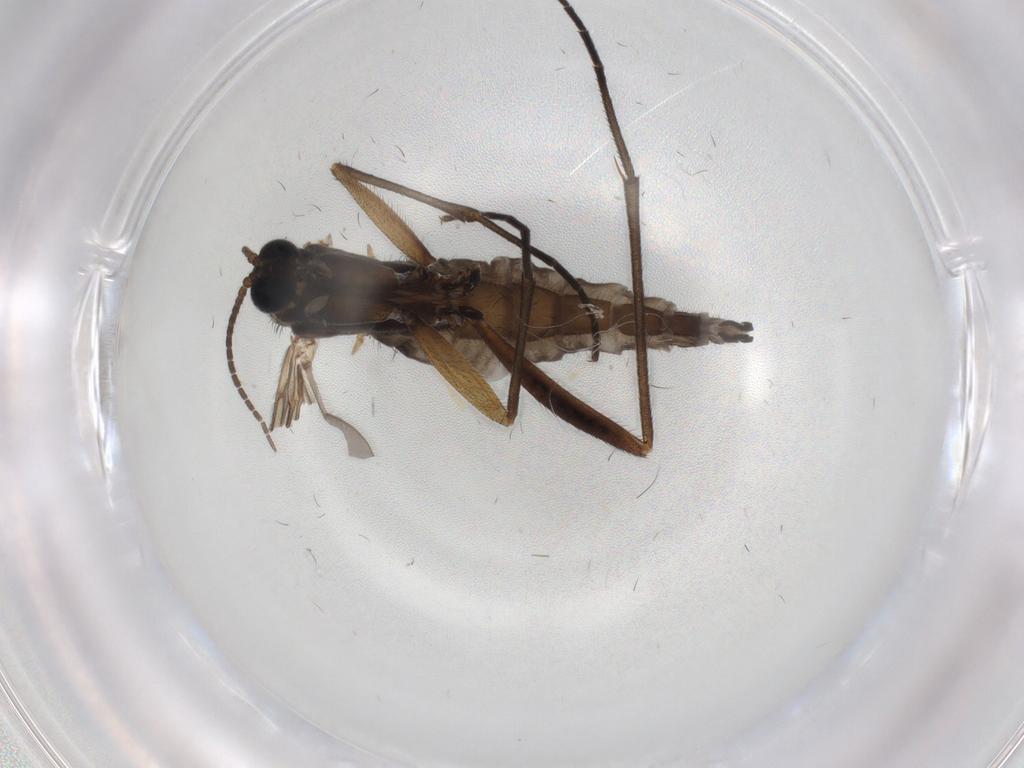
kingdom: Animalia
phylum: Arthropoda
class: Insecta
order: Diptera
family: Sciaridae
